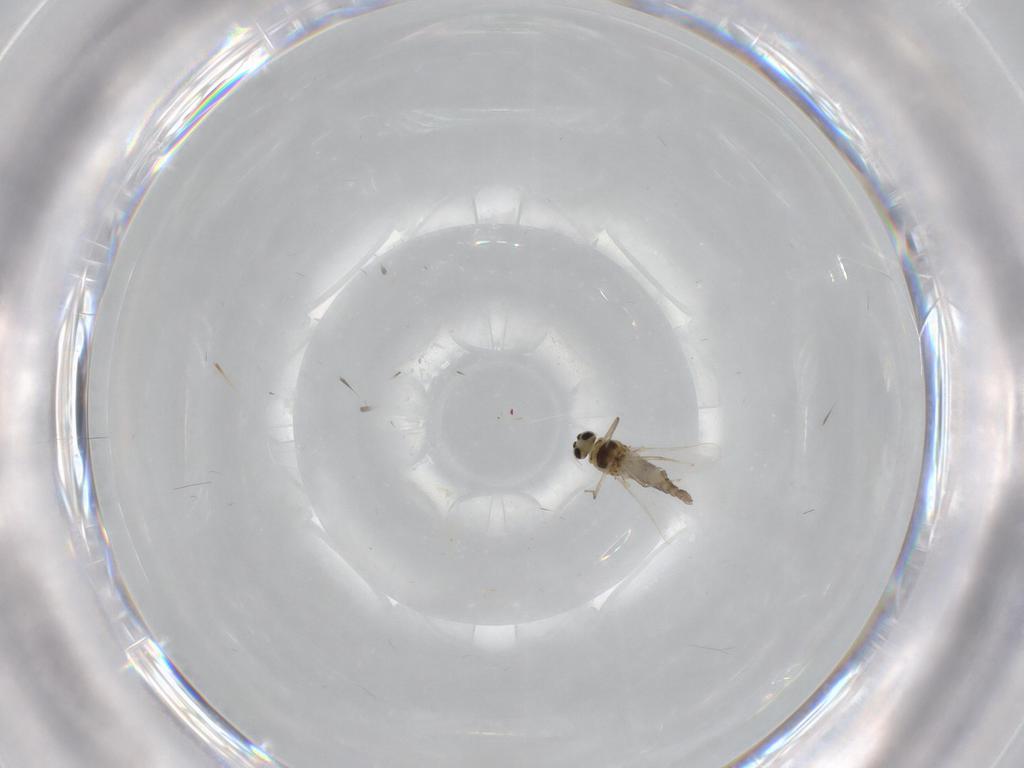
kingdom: Animalia
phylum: Arthropoda
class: Insecta
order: Diptera
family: Chironomidae
